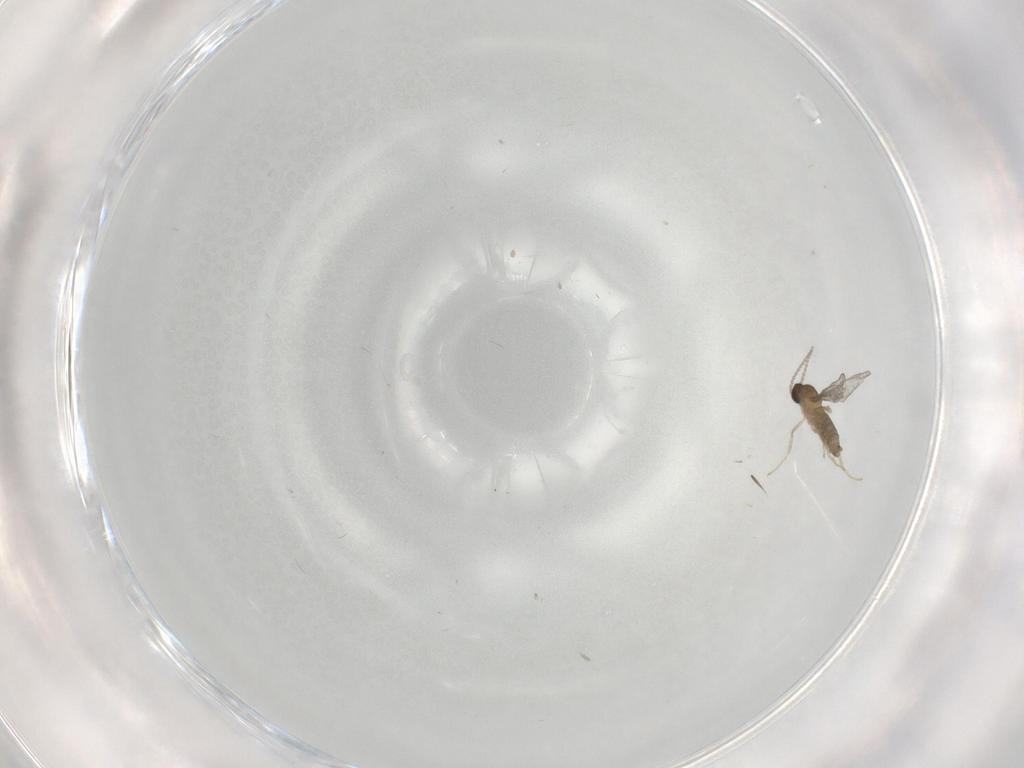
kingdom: Animalia
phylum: Arthropoda
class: Insecta
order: Diptera
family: Cecidomyiidae
